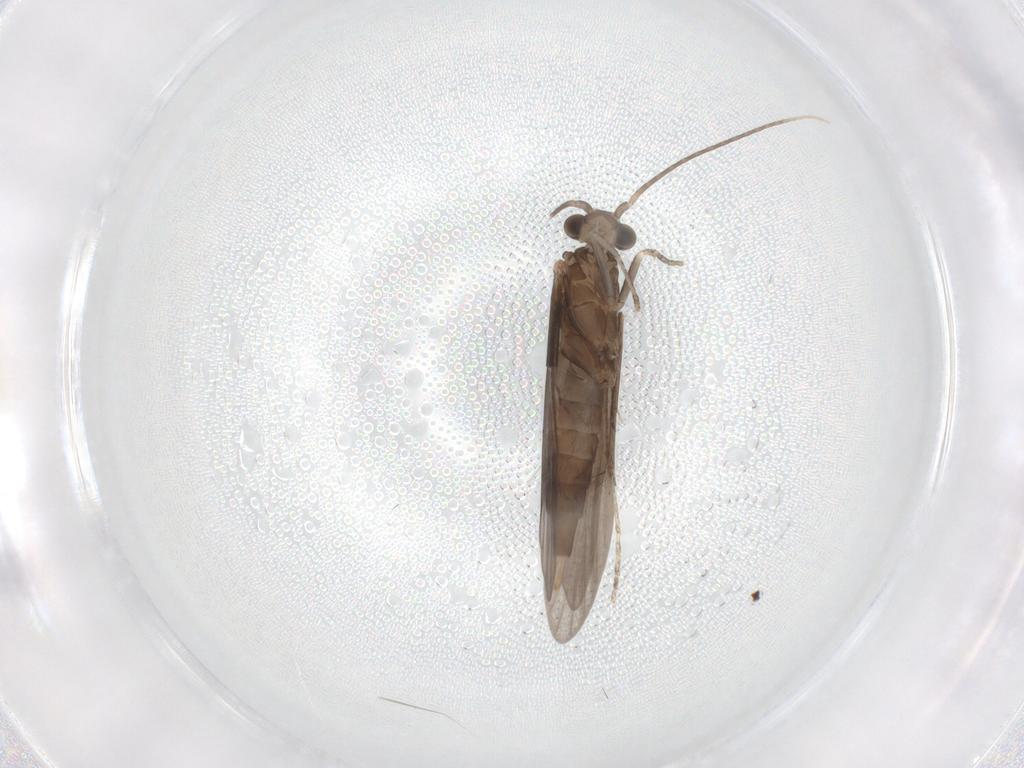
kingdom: Animalia
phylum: Arthropoda
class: Insecta
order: Trichoptera
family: Xiphocentronidae
